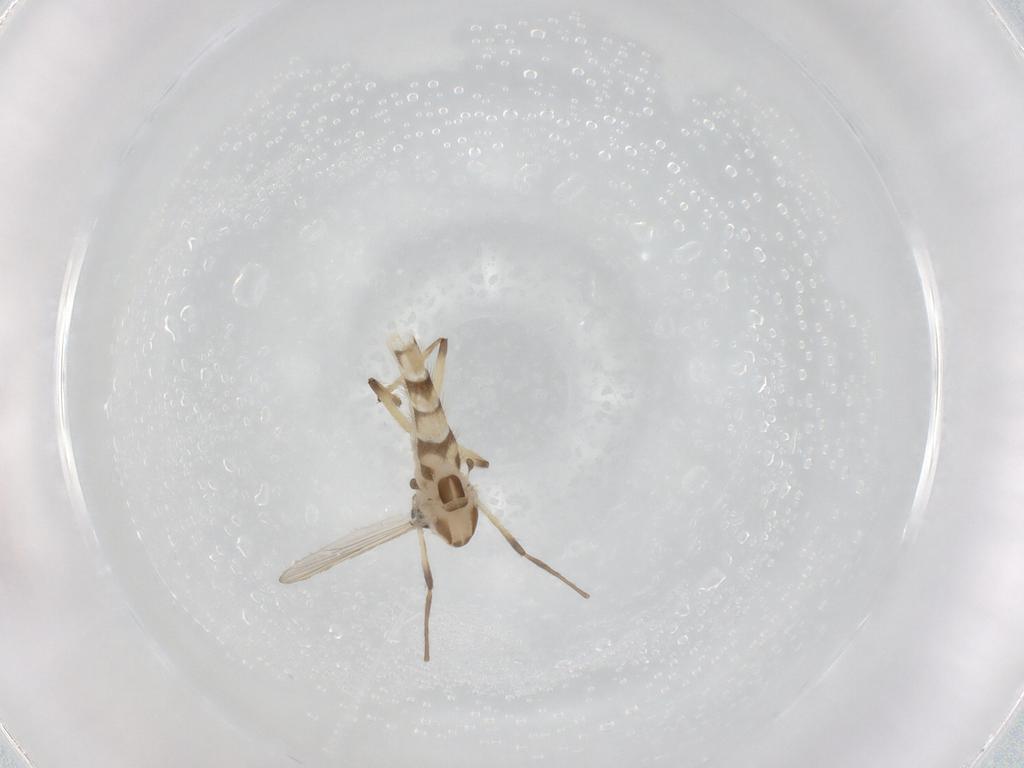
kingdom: Animalia
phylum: Arthropoda
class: Insecta
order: Diptera
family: Chironomidae
